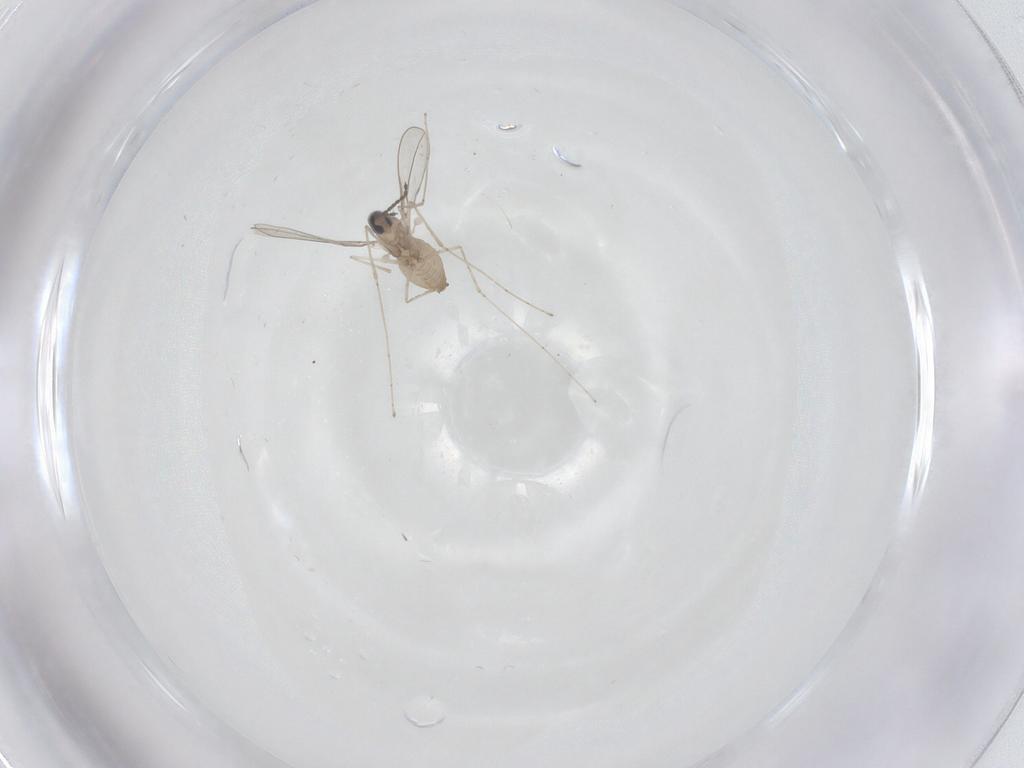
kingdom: Animalia
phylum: Arthropoda
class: Insecta
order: Diptera
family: Cecidomyiidae
